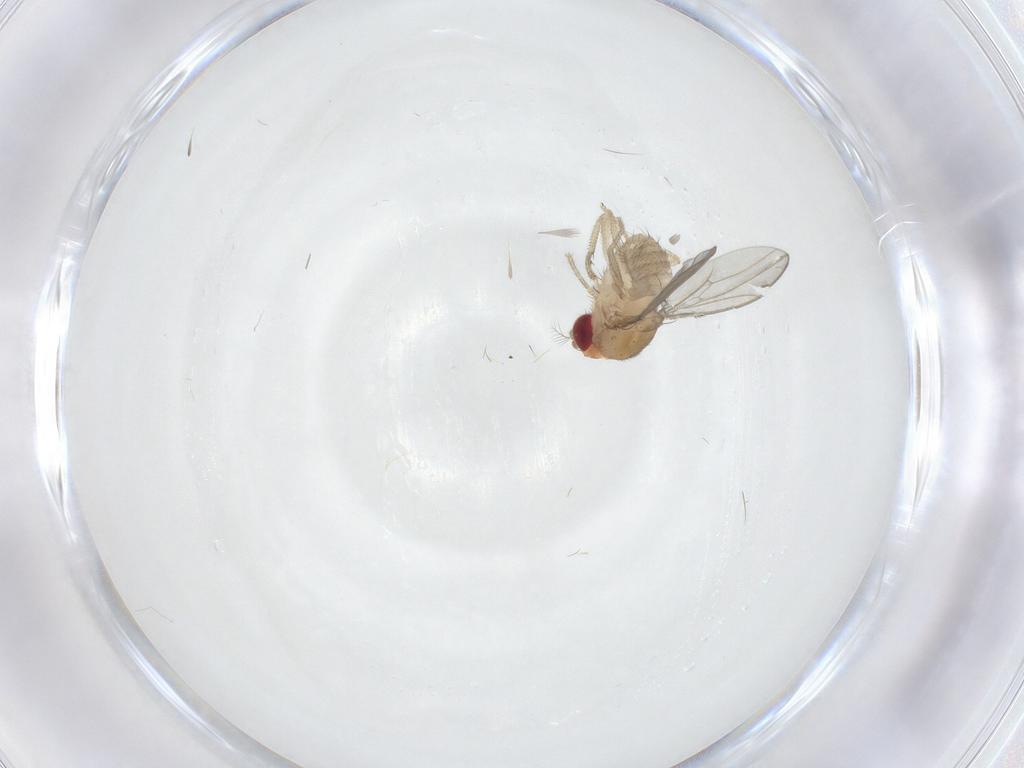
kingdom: Animalia
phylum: Arthropoda
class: Insecta
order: Diptera
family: Drosophilidae
